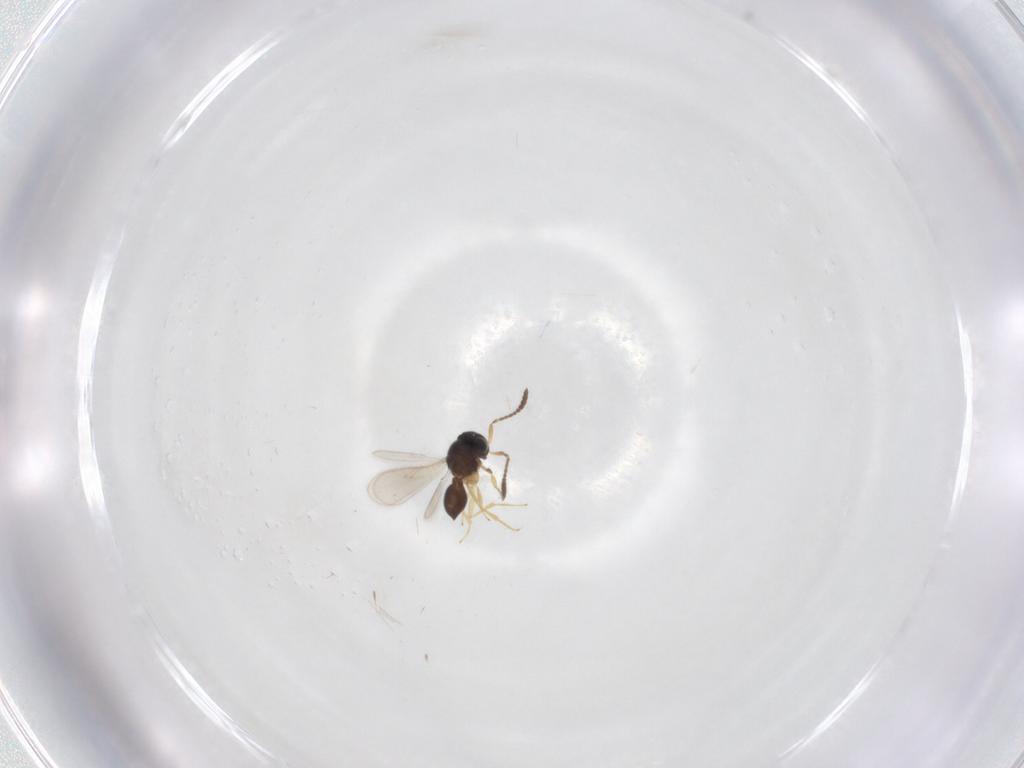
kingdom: Animalia
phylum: Arthropoda
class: Insecta
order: Hymenoptera
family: Scelionidae
